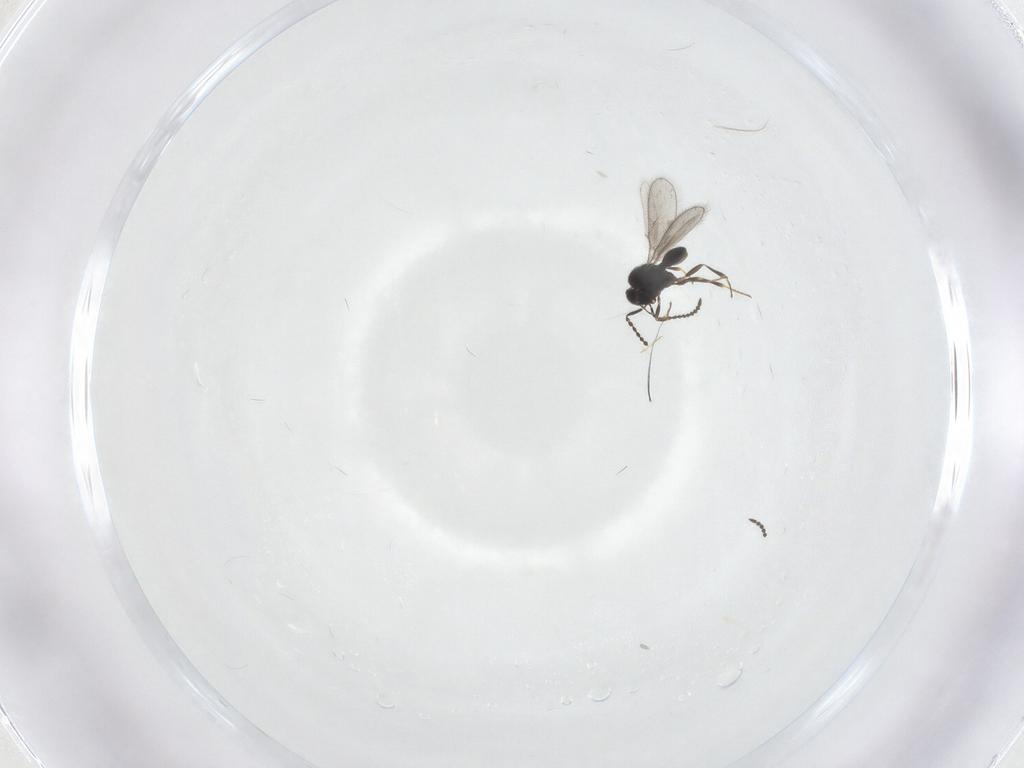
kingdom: Animalia
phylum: Arthropoda
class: Insecta
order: Hymenoptera
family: Scelionidae
